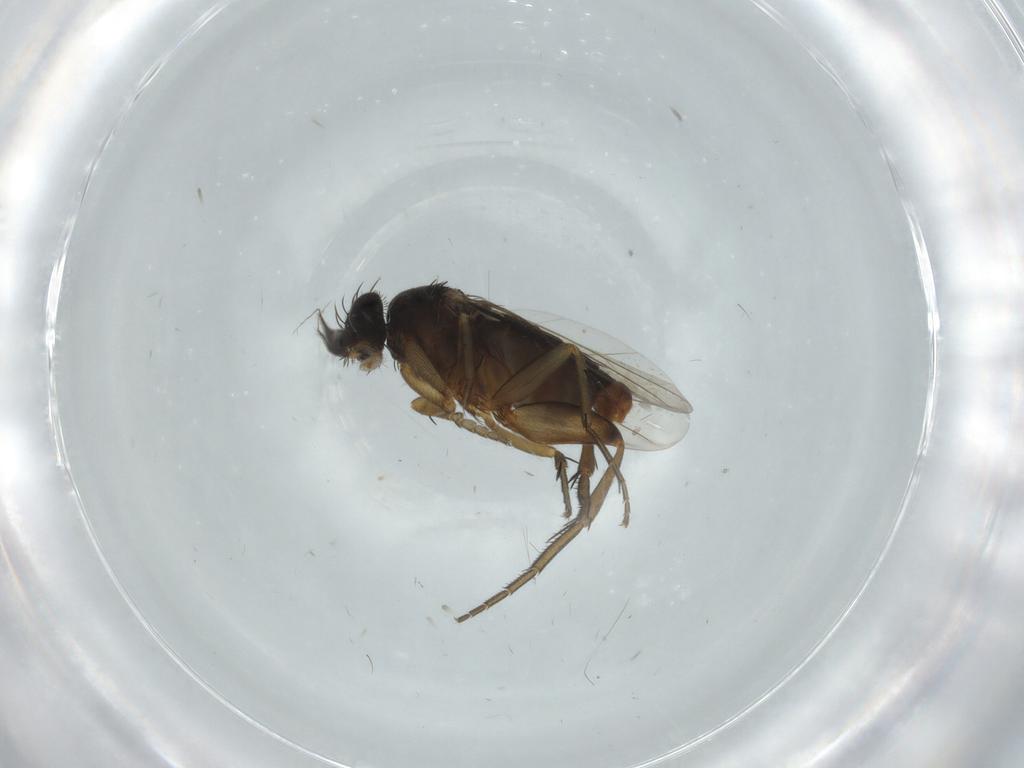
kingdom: Animalia
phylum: Arthropoda
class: Insecta
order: Diptera
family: Phoridae
